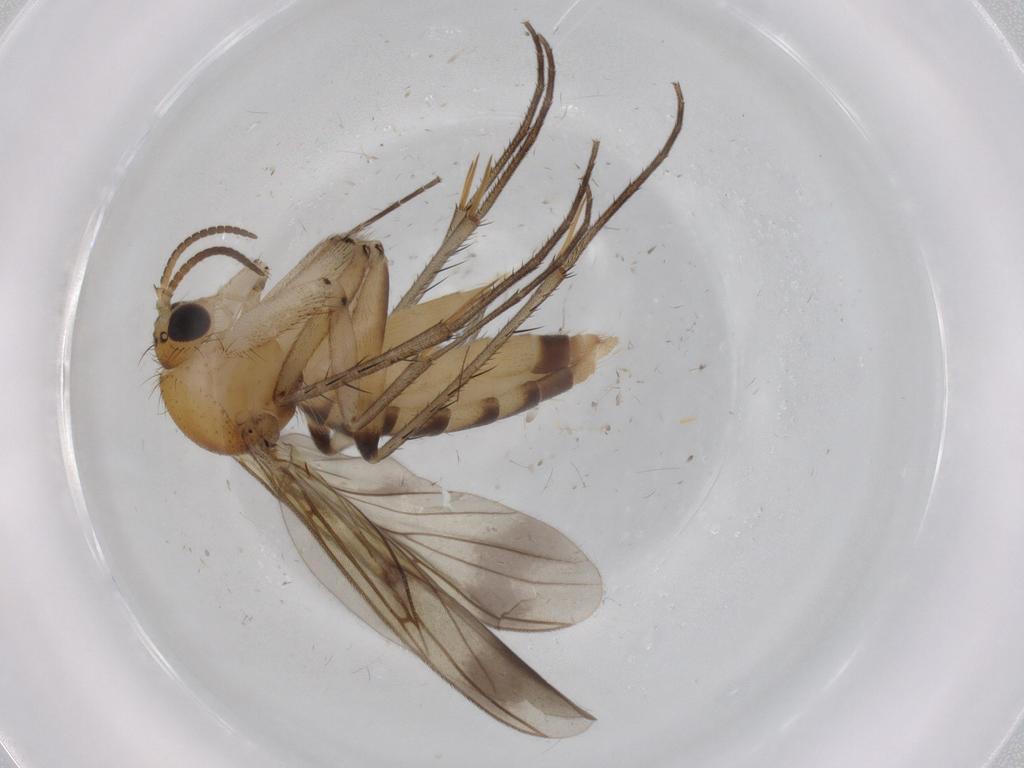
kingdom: Animalia
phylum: Arthropoda
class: Insecta
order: Diptera
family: Mycetophilidae
